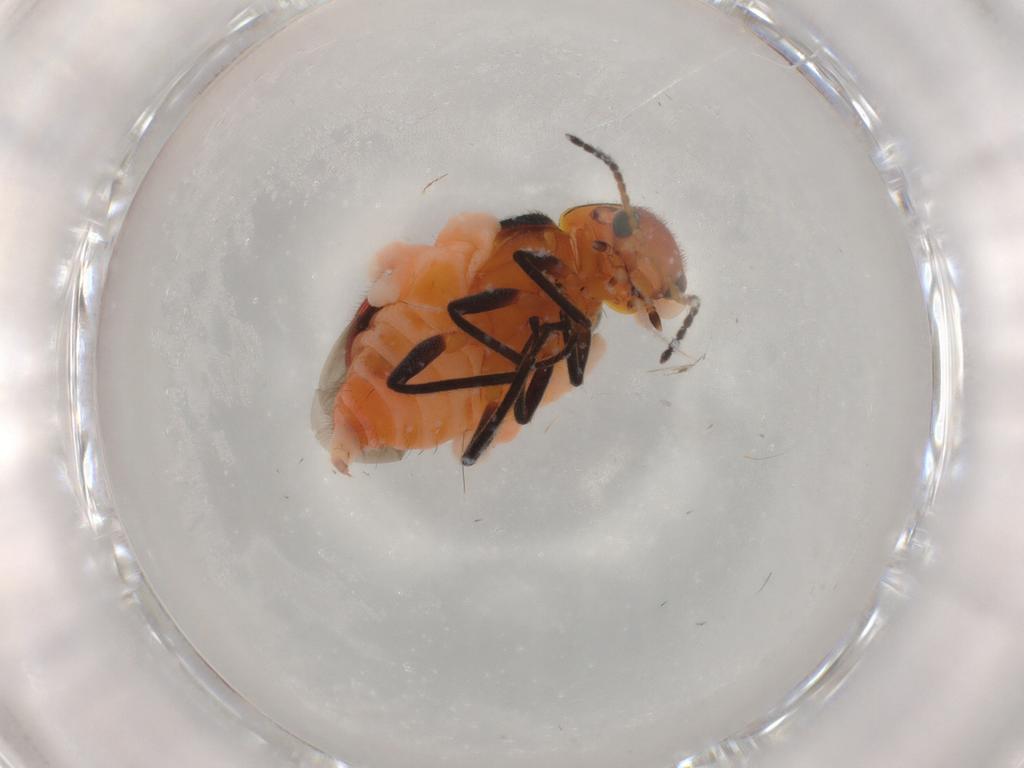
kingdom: Animalia
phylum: Arthropoda
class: Insecta
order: Coleoptera
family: Melyridae
